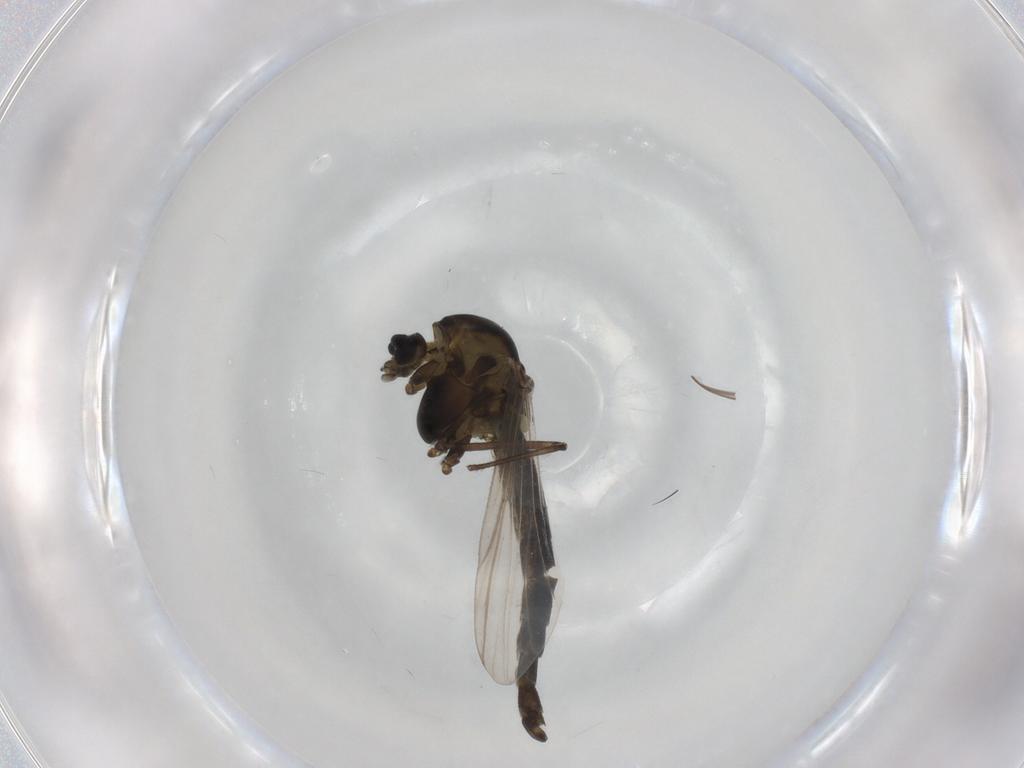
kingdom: Animalia
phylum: Arthropoda
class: Insecta
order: Diptera
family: Chironomidae
